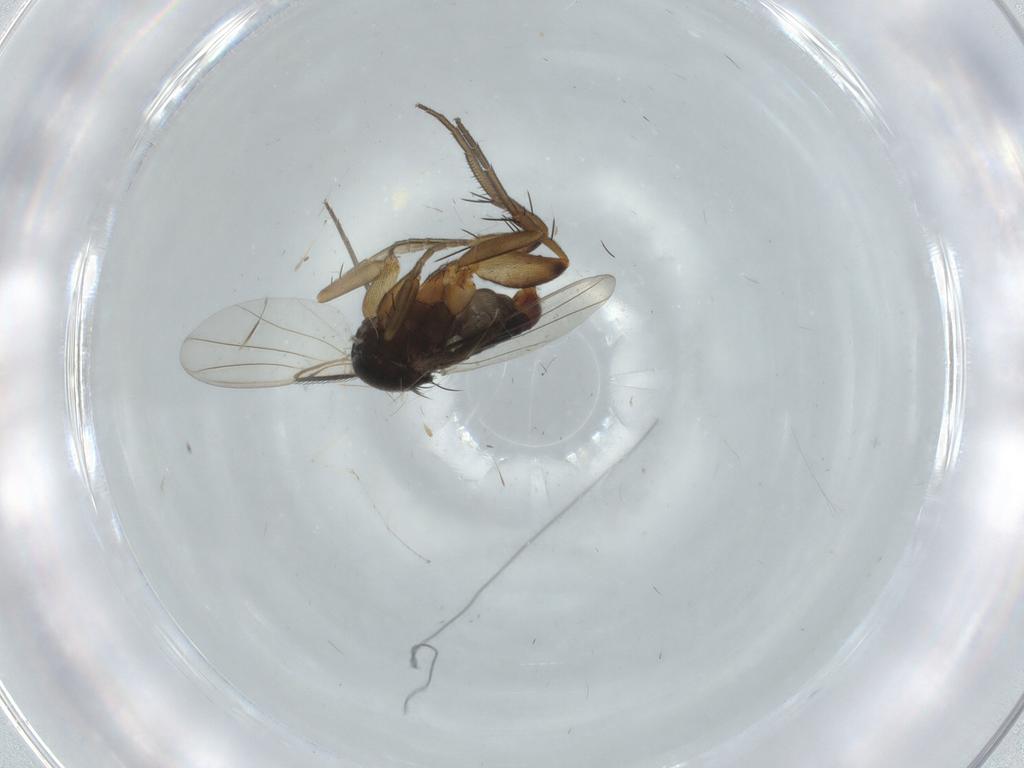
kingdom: Animalia
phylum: Arthropoda
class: Insecta
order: Diptera
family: Phoridae
